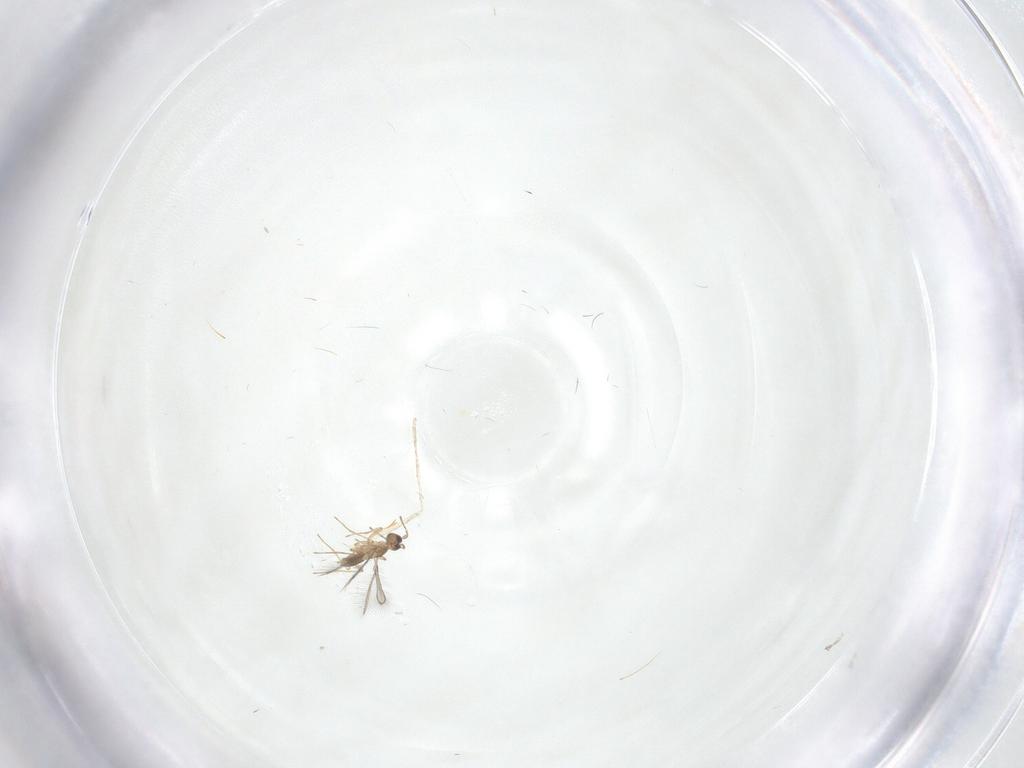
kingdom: Animalia
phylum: Arthropoda
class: Insecta
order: Hymenoptera
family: Mymaridae
